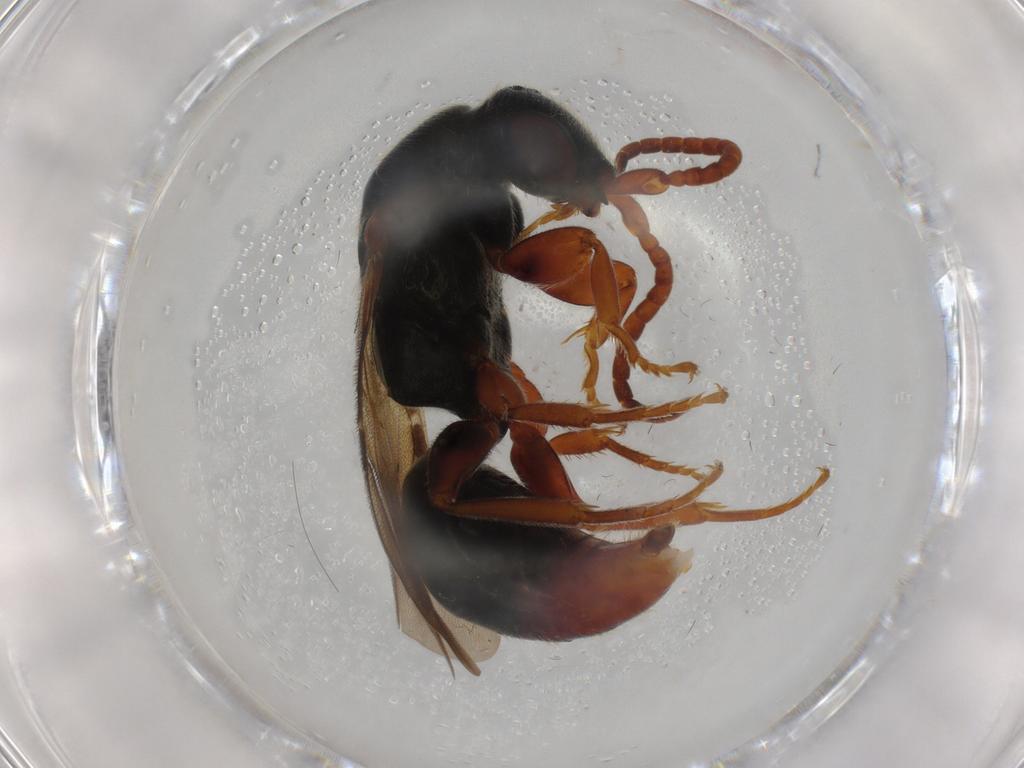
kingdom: Animalia
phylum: Arthropoda
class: Insecta
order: Hymenoptera
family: Bethylidae
